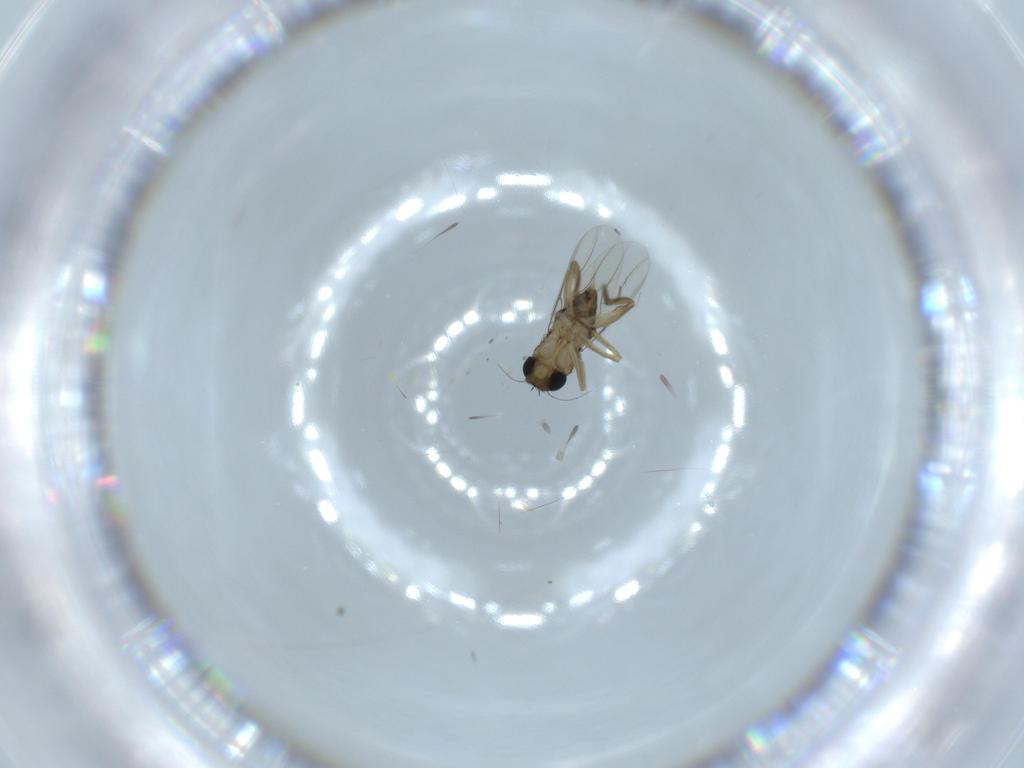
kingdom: Animalia
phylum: Arthropoda
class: Insecta
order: Diptera
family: Phoridae
